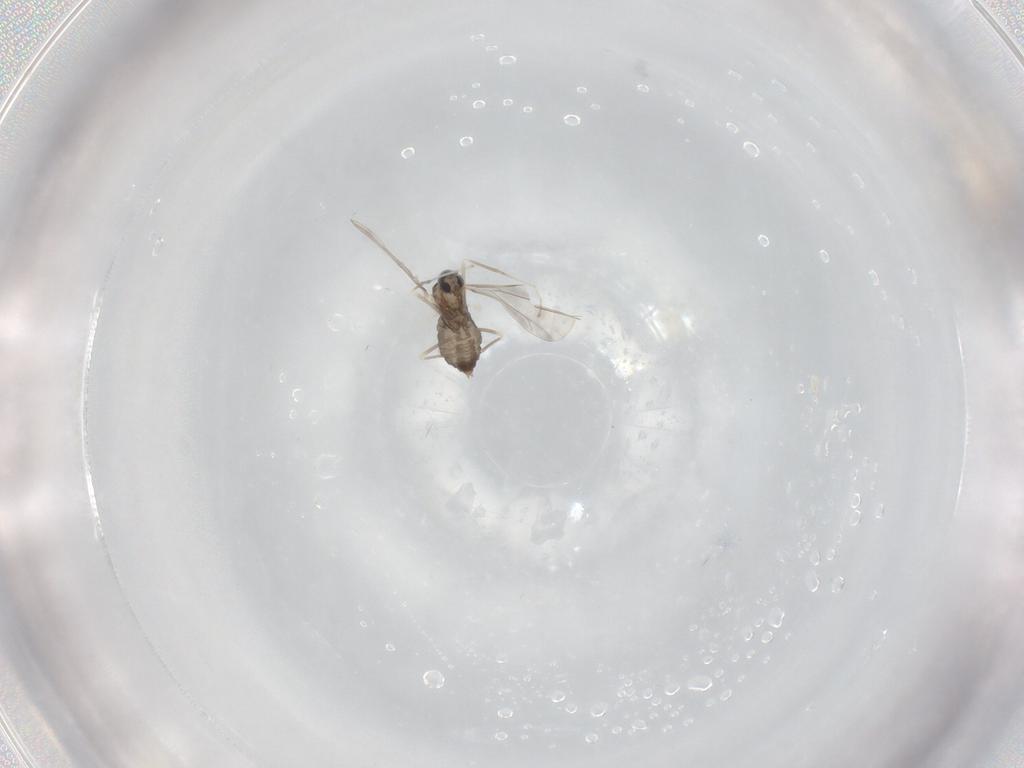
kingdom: Animalia
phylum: Arthropoda
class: Insecta
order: Diptera
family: Cecidomyiidae
